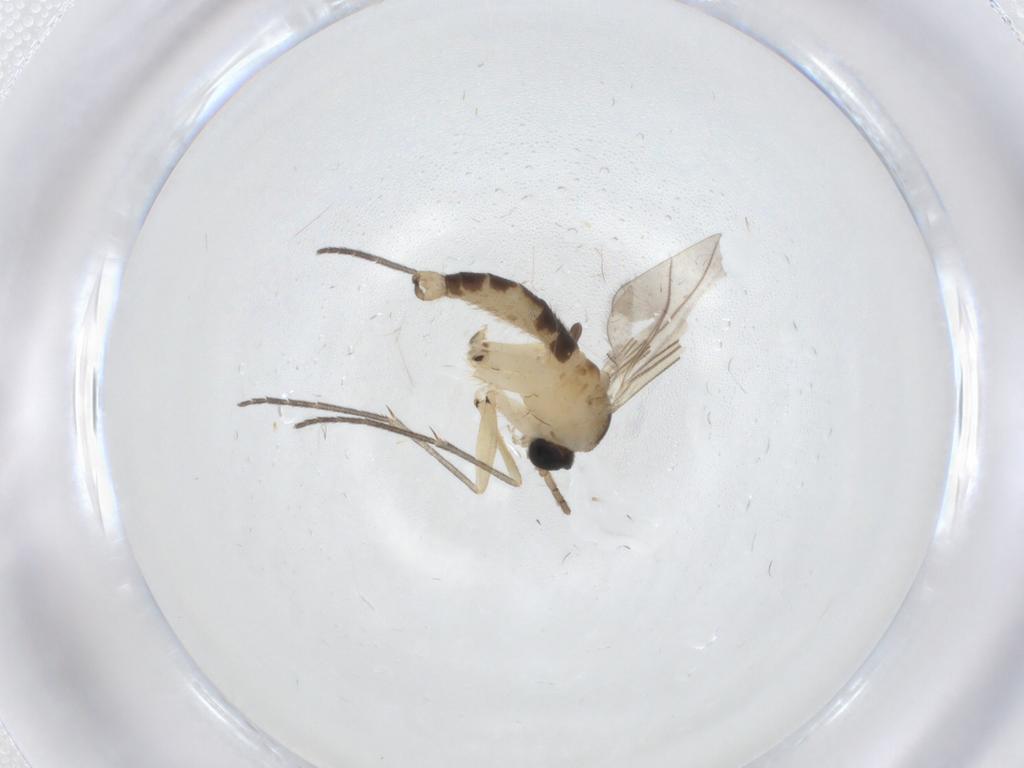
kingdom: Animalia
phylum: Arthropoda
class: Insecta
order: Diptera
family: Sciaridae
